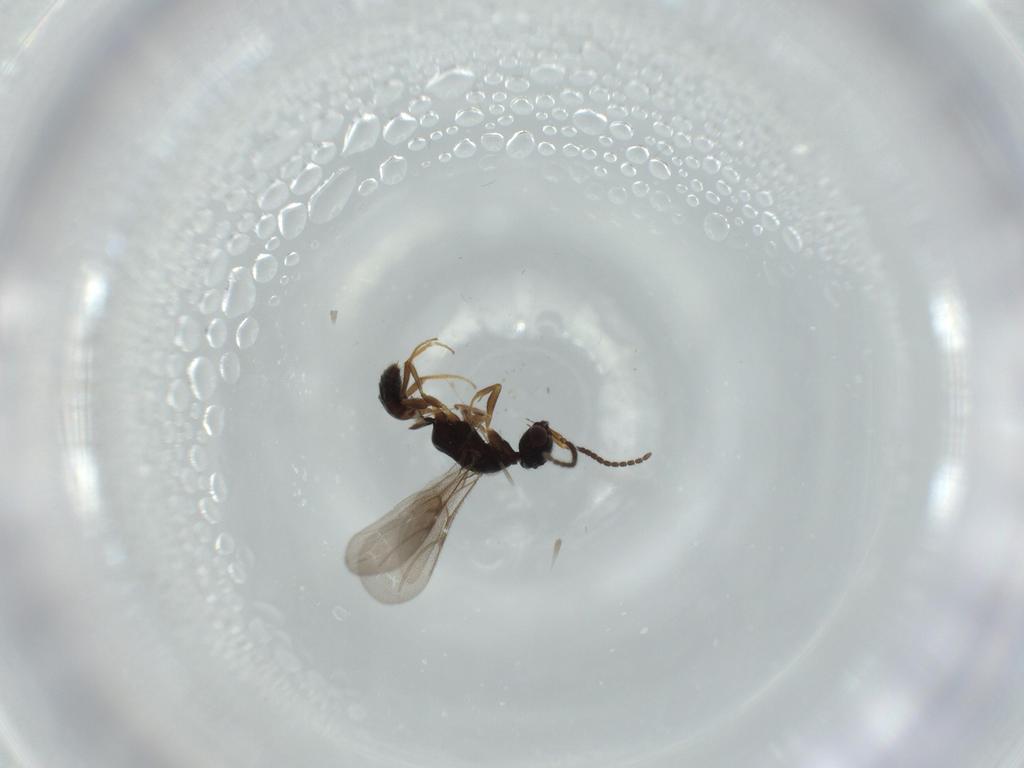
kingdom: Animalia
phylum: Arthropoda
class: Insecta
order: Hymenoptera
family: Bethylidae
